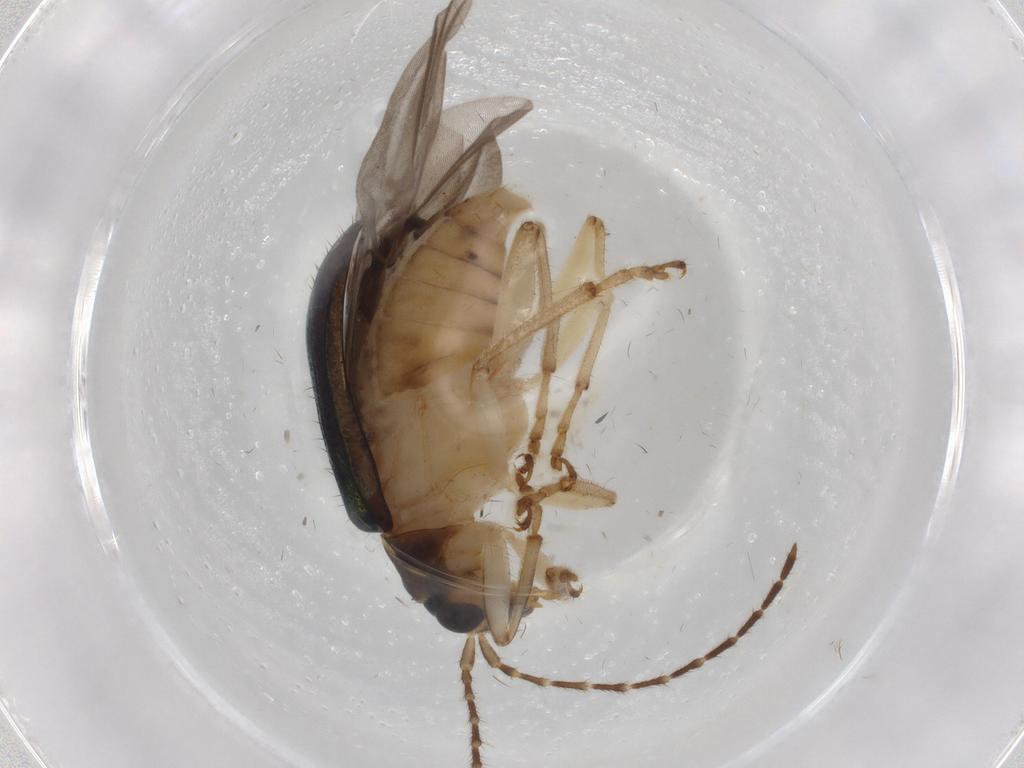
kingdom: Animalia
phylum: Arthropoda
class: Insecta
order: Coleoptera
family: Chrysomelidae
